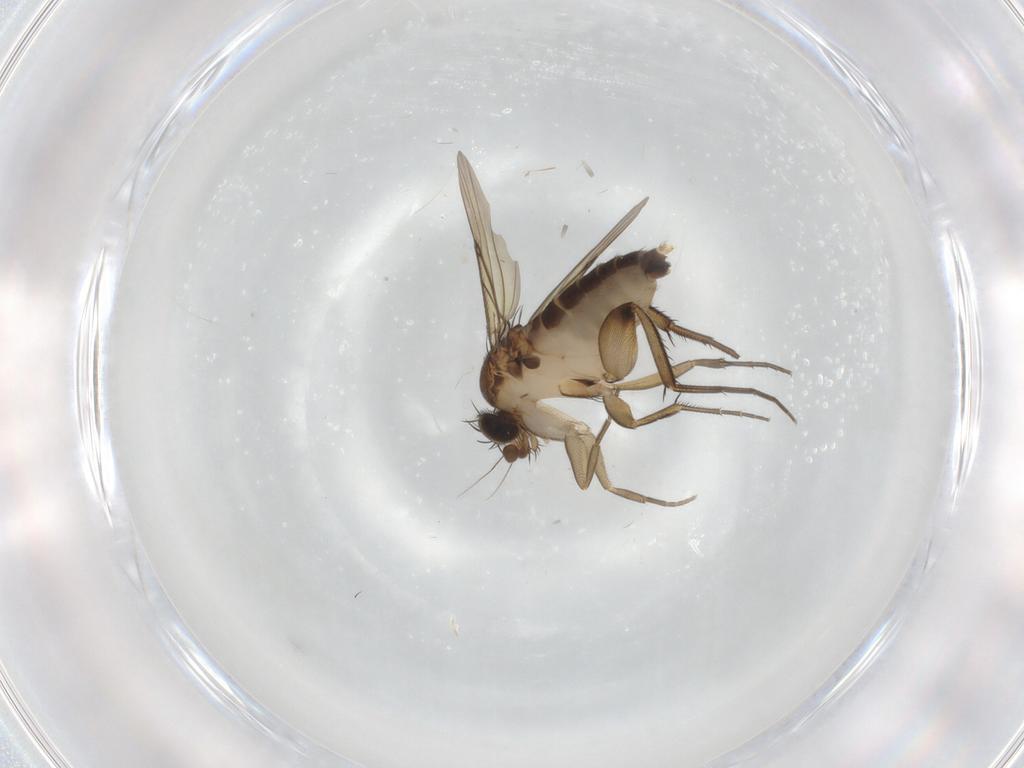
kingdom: Animalia
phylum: Arthropoda
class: Insecta
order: Diptera
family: Phoridae
